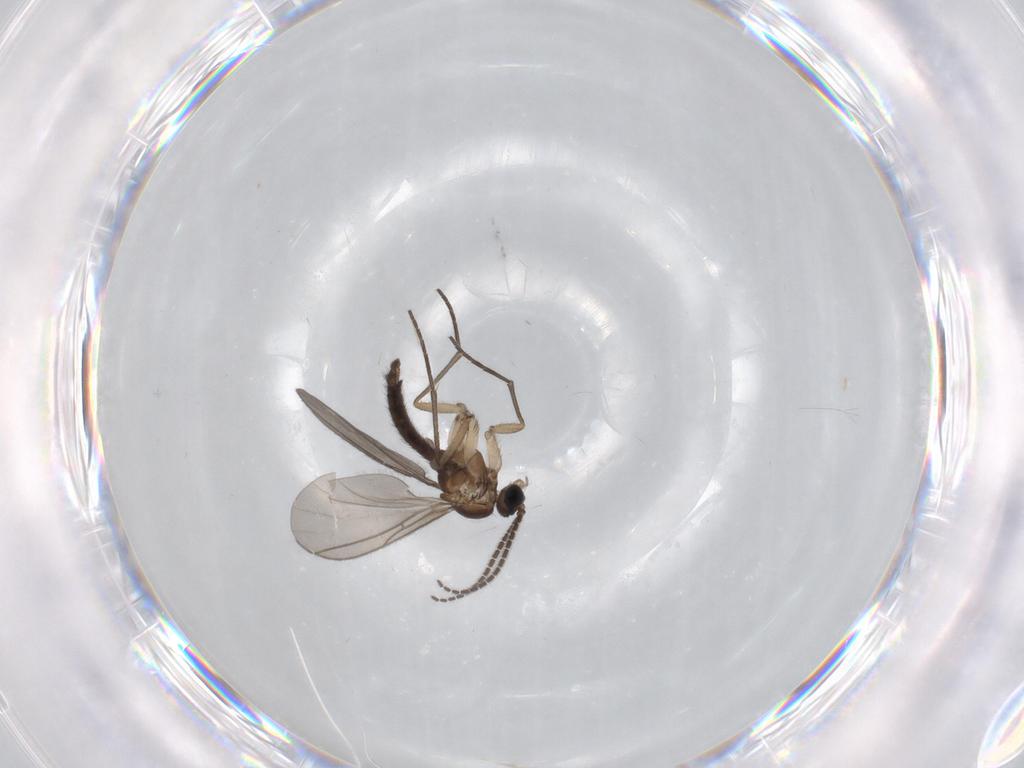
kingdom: Animalia
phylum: Arthropoda
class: Insecta
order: Diptera
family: Sciaridae
